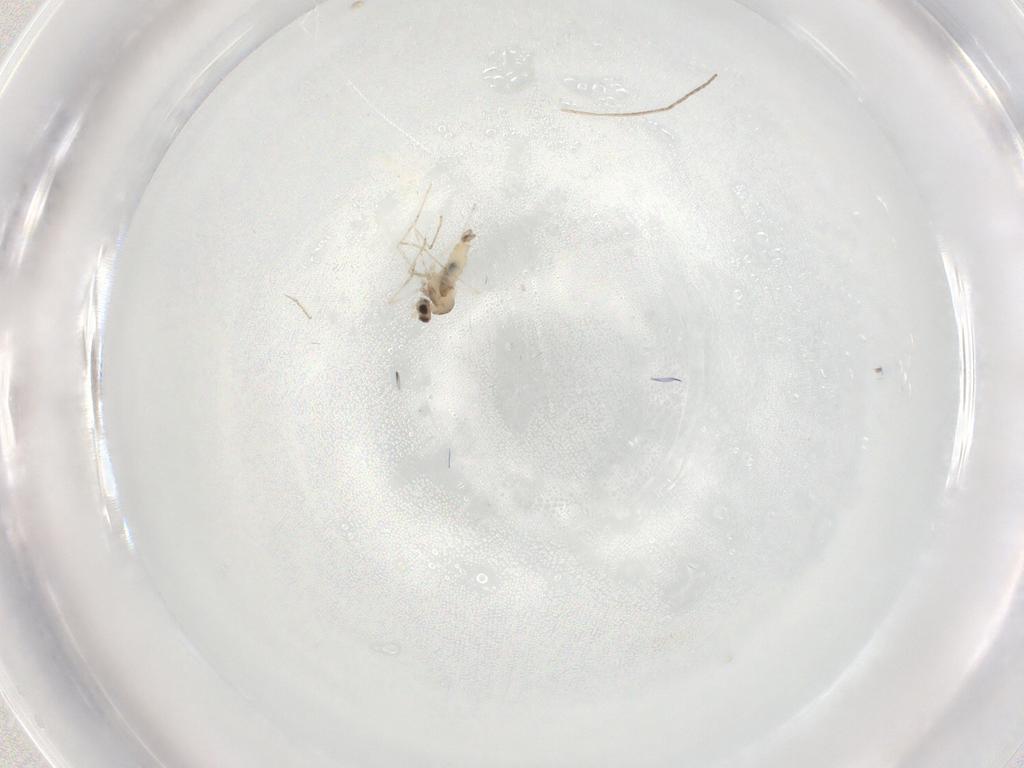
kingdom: Animalia
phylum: Arthropoda
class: Insecta
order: Diptera
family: Cecidomyiidae
